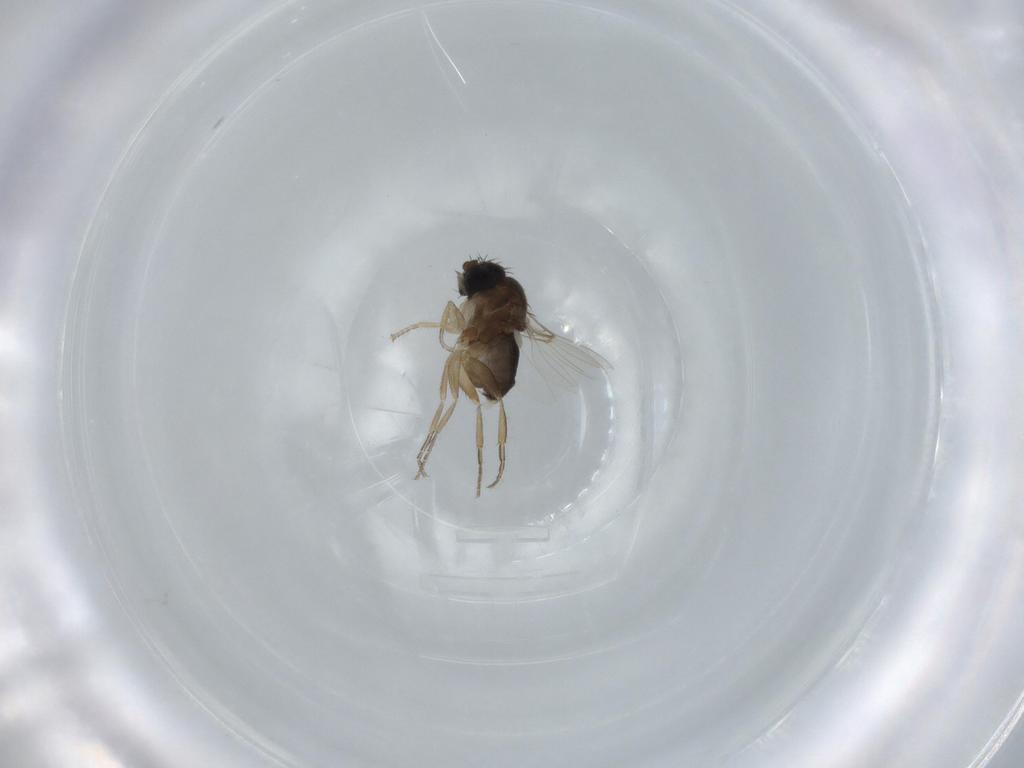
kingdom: Animalia
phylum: Arthropoda
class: Insecta
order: Diptera
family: Phoridae
